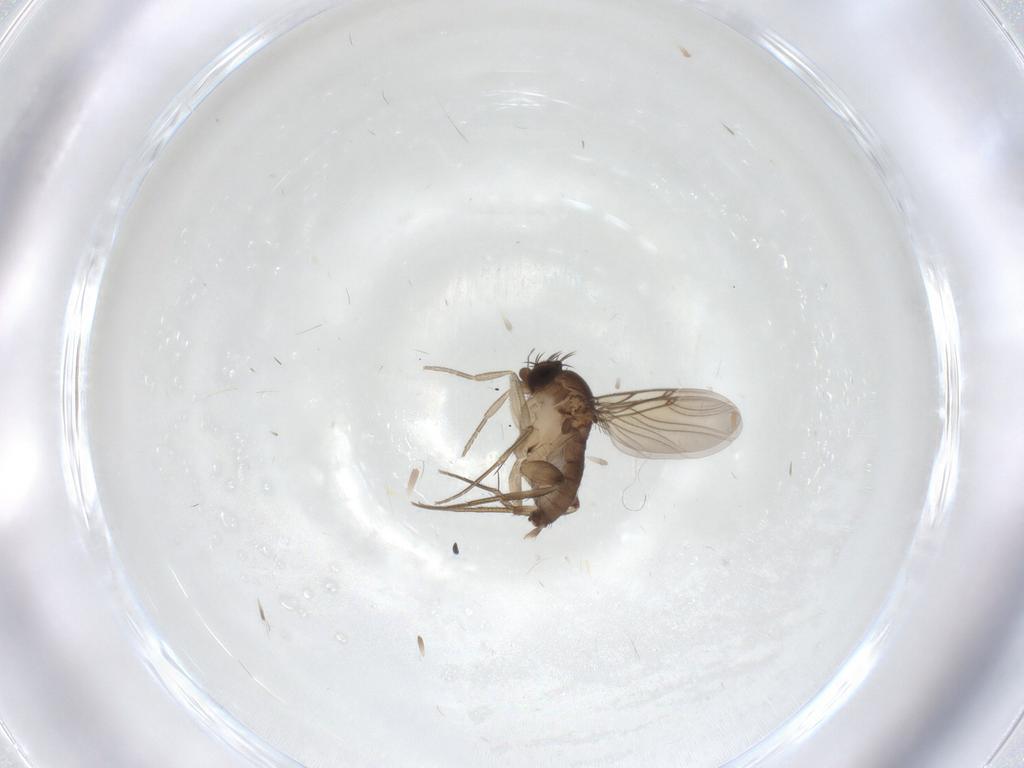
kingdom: Animalia
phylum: Arthropoda
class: Insecta
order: Diptera
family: Phoridae
